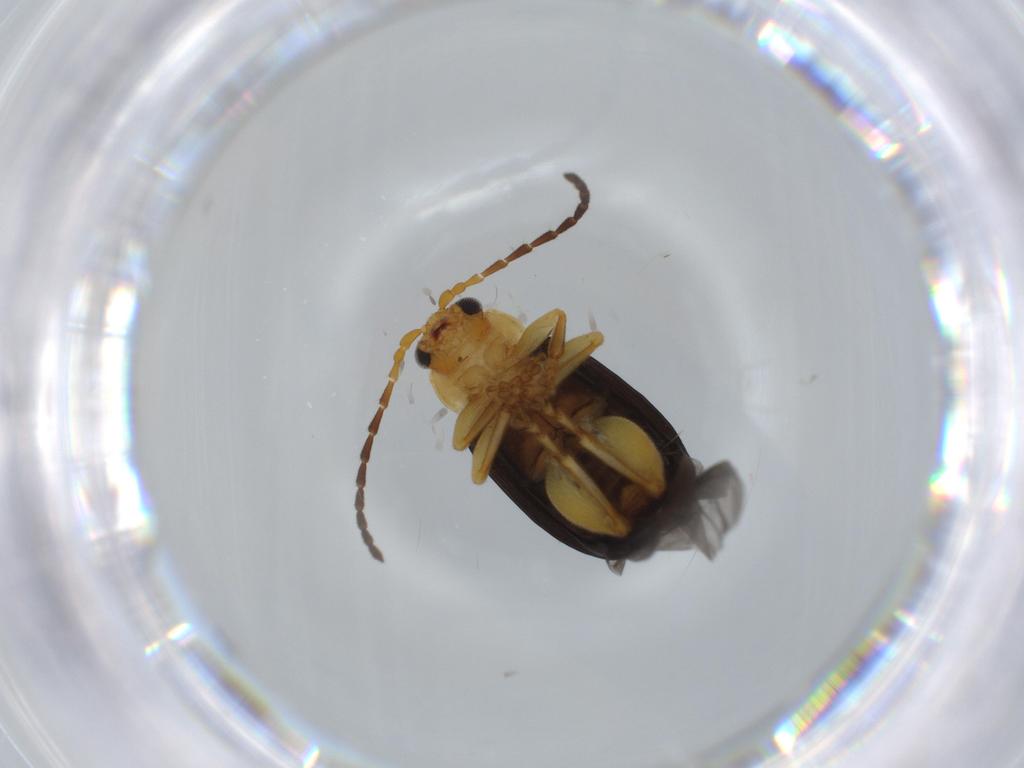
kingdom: Animalia
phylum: Arthropoda
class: Insecta
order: Coleoptera
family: Chrysomelidae
